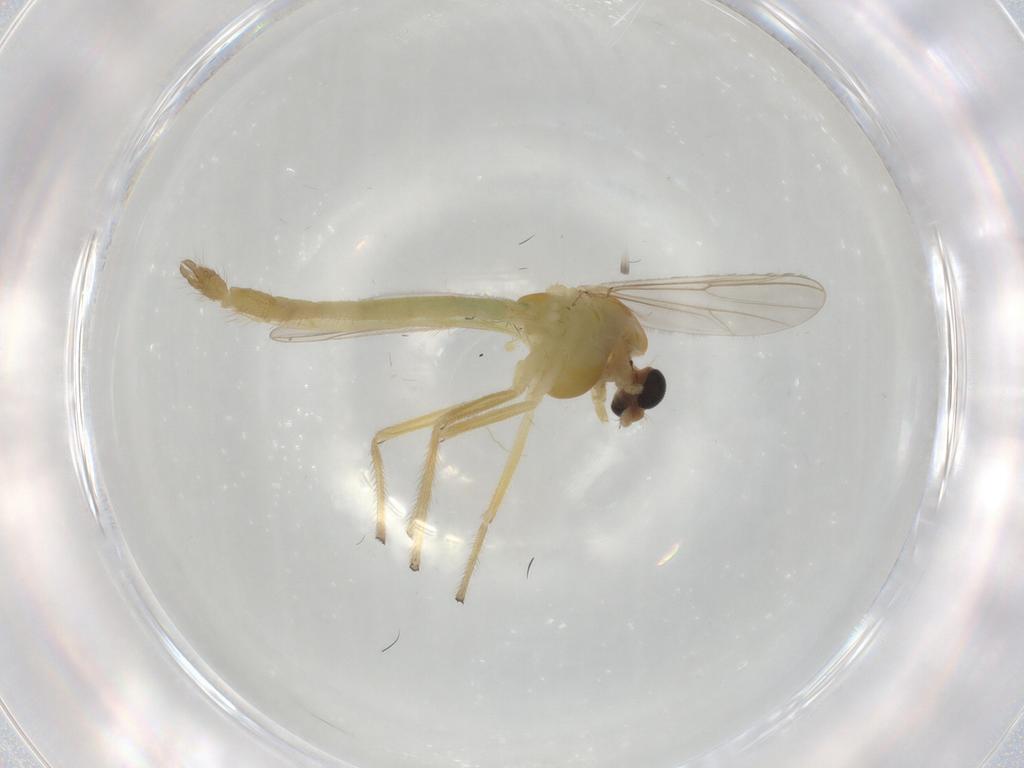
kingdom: Animalia
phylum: Arthropoda
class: Insecta
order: Diptera
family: Chironomidae
